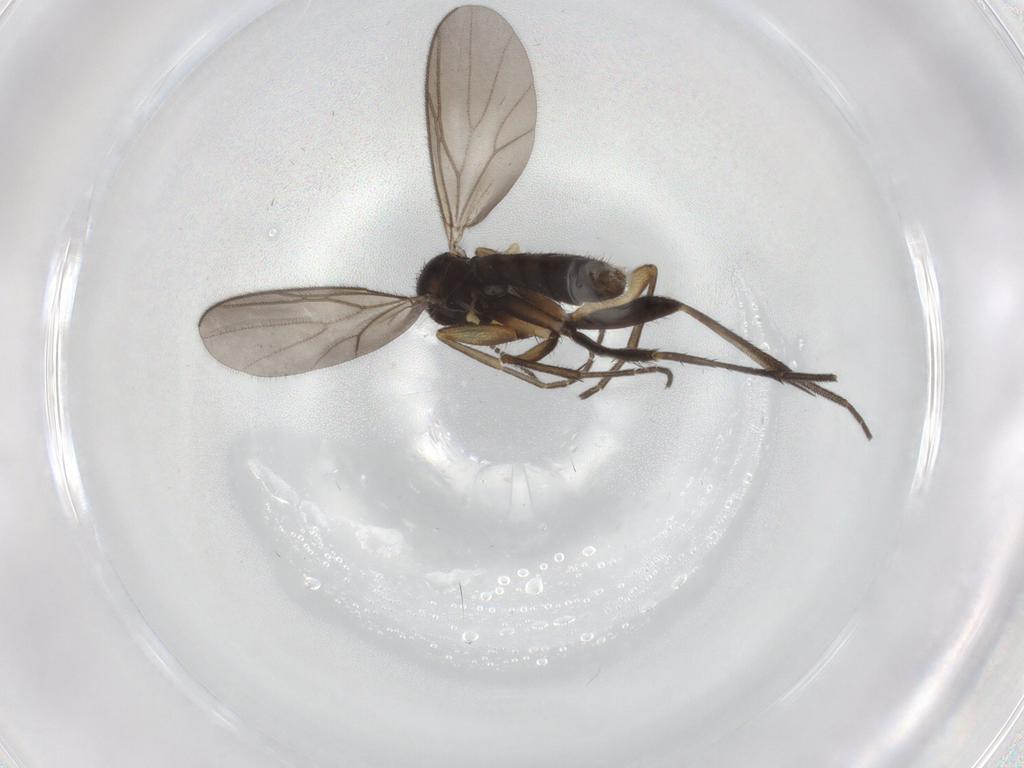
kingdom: Animalia
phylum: Arthropoda
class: Insecta
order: Diptera
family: Mycetophilidae
